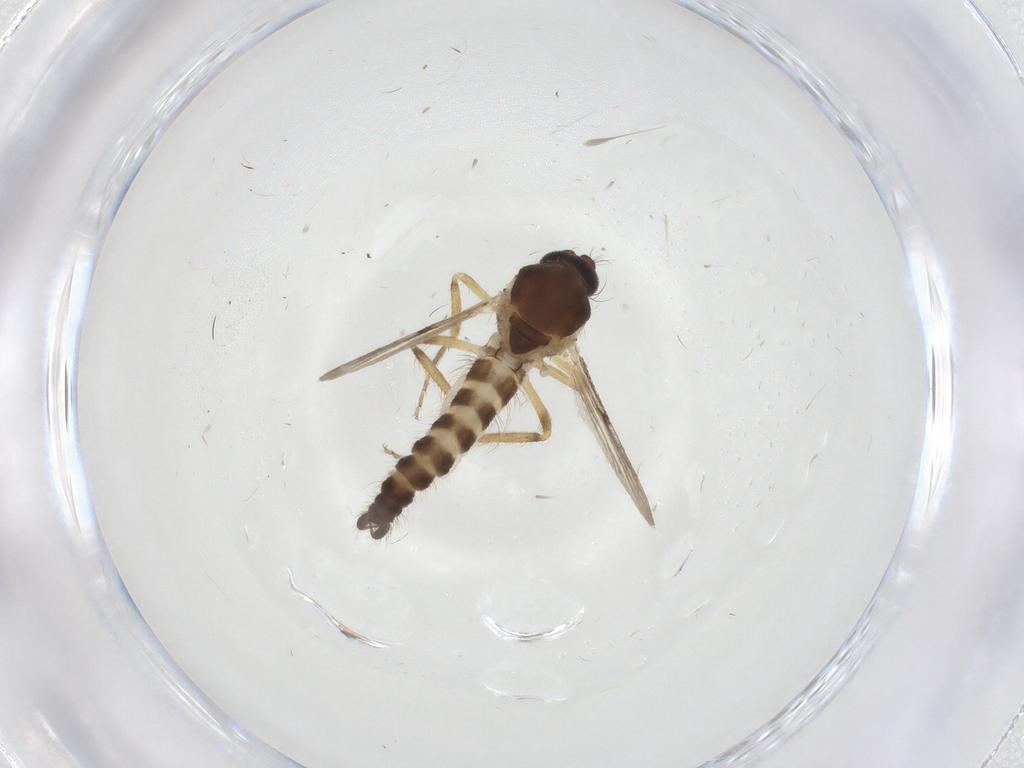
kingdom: Animalia
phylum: Arthropoda
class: Insecta
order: Diptera
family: Ceratopogonidae
